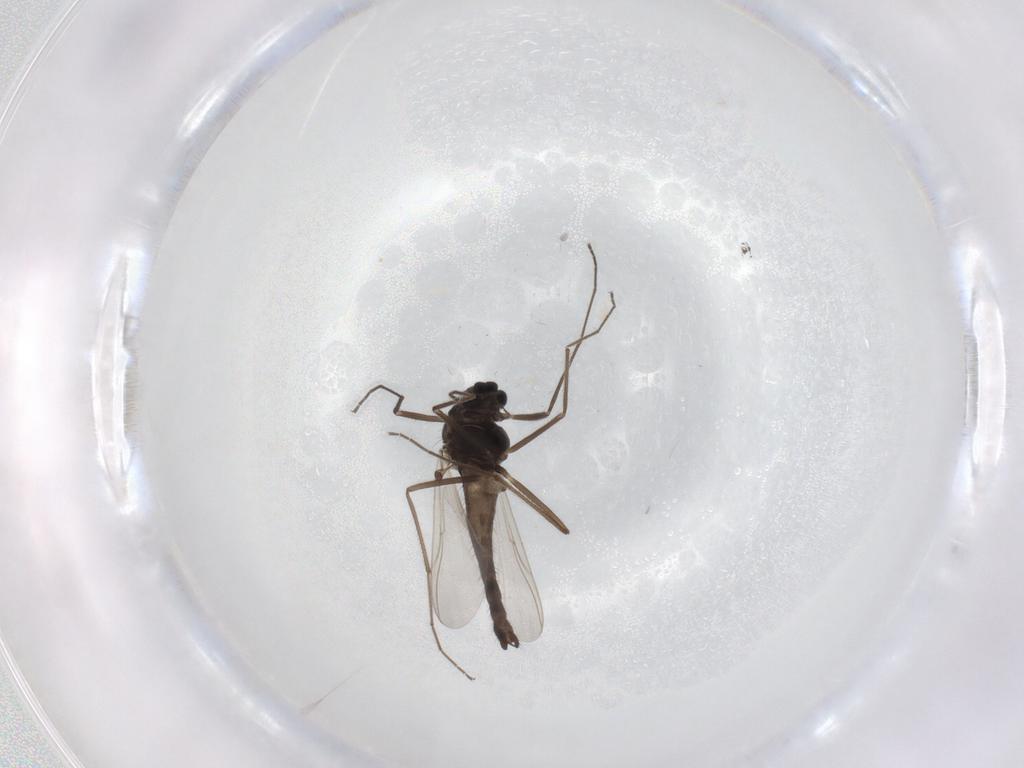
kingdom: Animalia
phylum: Arthropoda
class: Insecta
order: Diptera
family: Chironomidae
